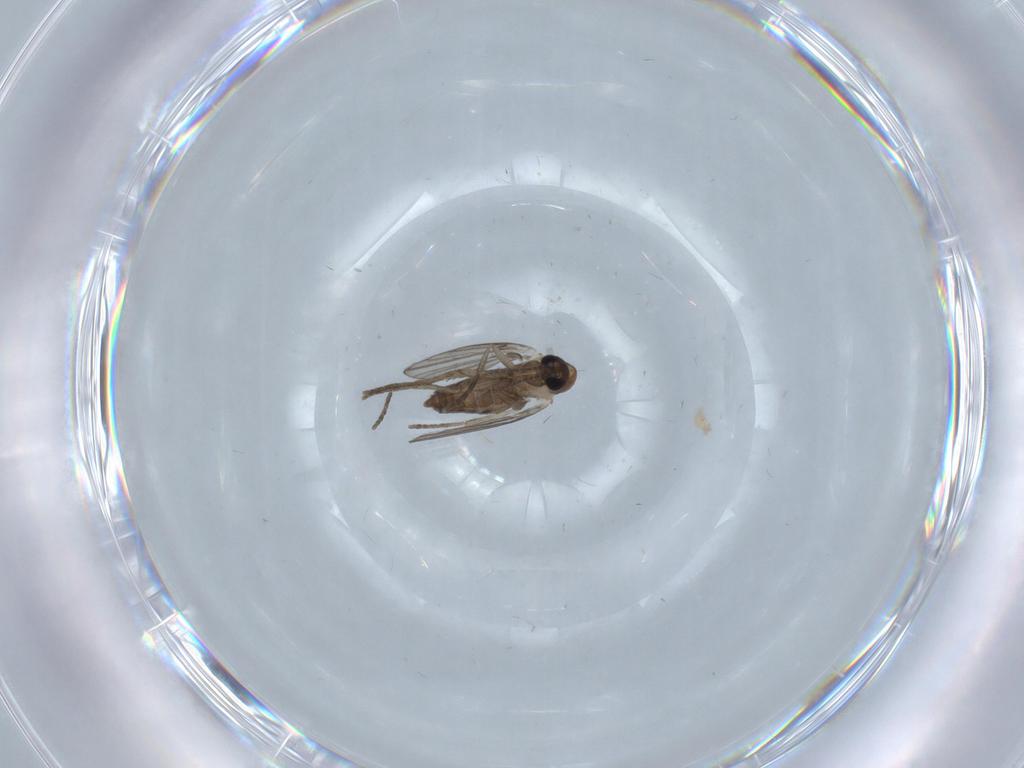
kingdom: Animalia
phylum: Arthropoda
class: Insecta
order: Diptera
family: Psychodidae
